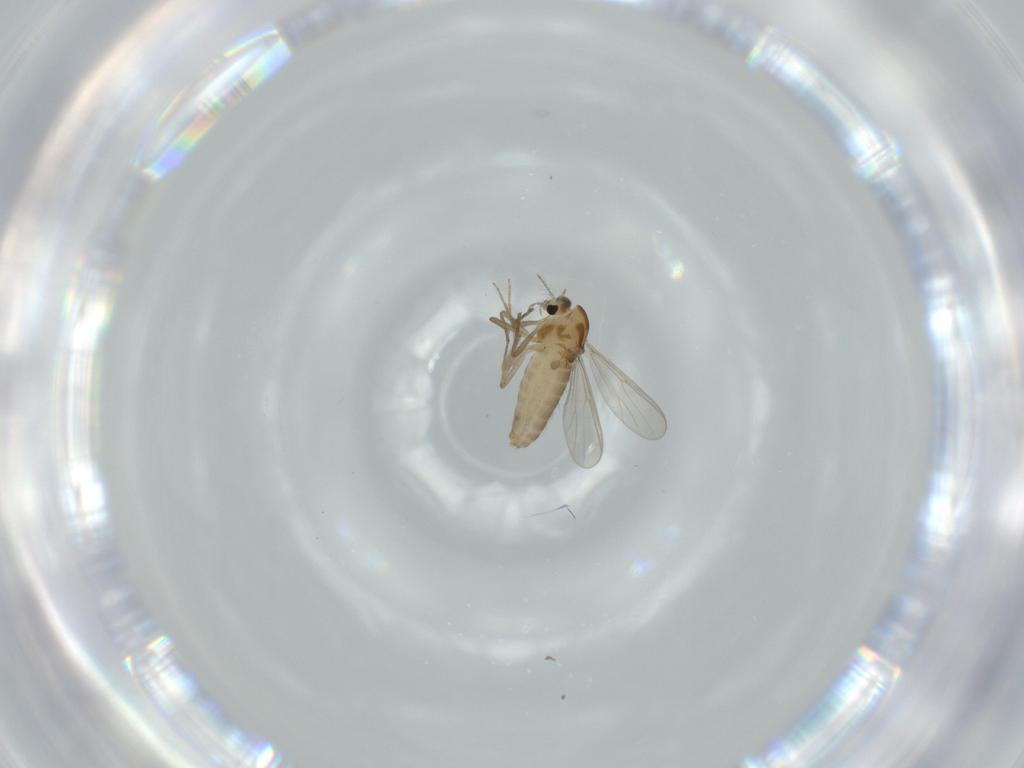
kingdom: Animalia
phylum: Arthropoda
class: Insecta
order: Diptera
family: Chironomidae
